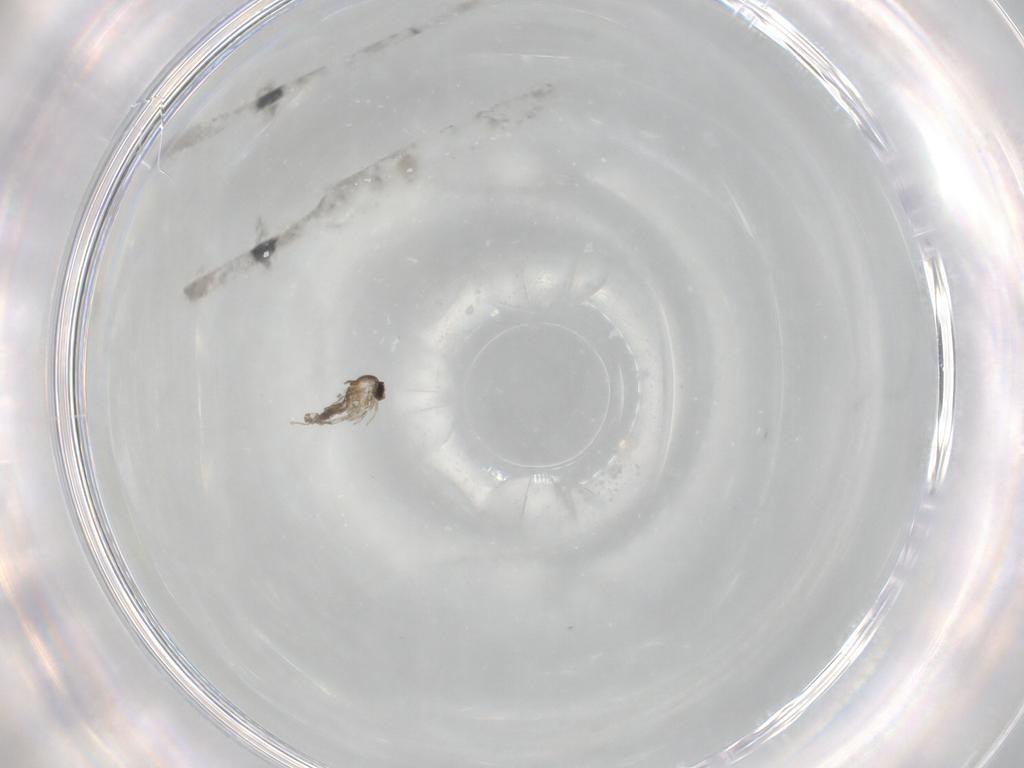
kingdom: Animalia
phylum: Arthropoda
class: Insecta
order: Diptera
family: Cecidomyiidae
